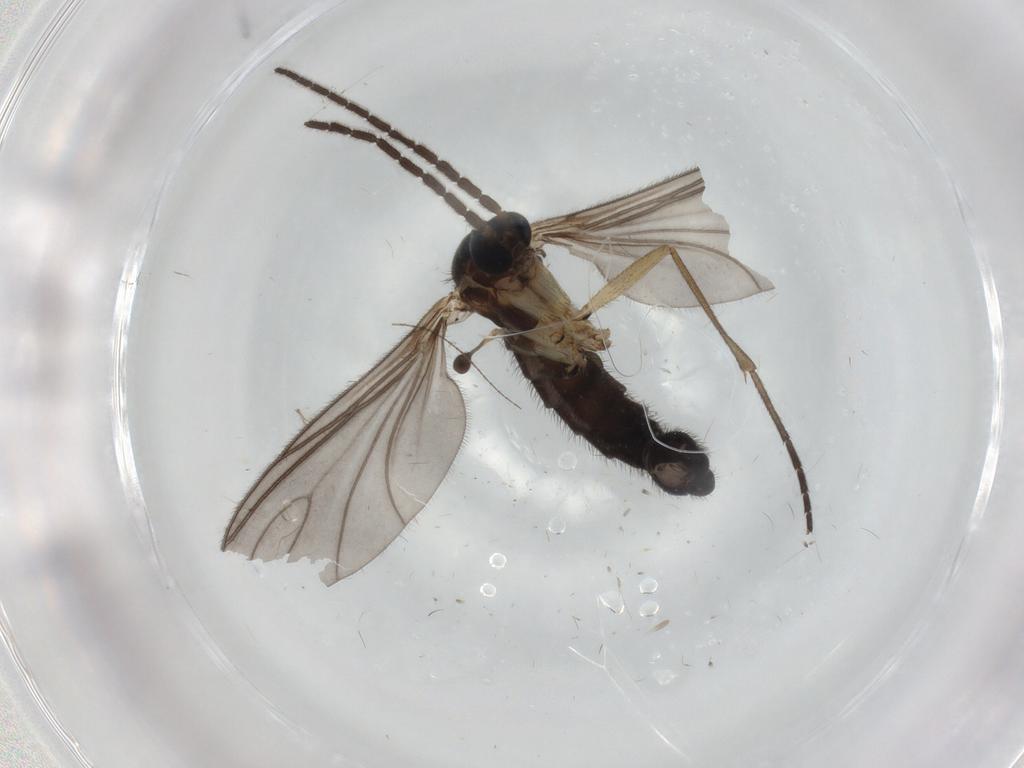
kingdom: Animalia
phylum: Arthropoda
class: Insecta
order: Diptera
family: Sciaridae
